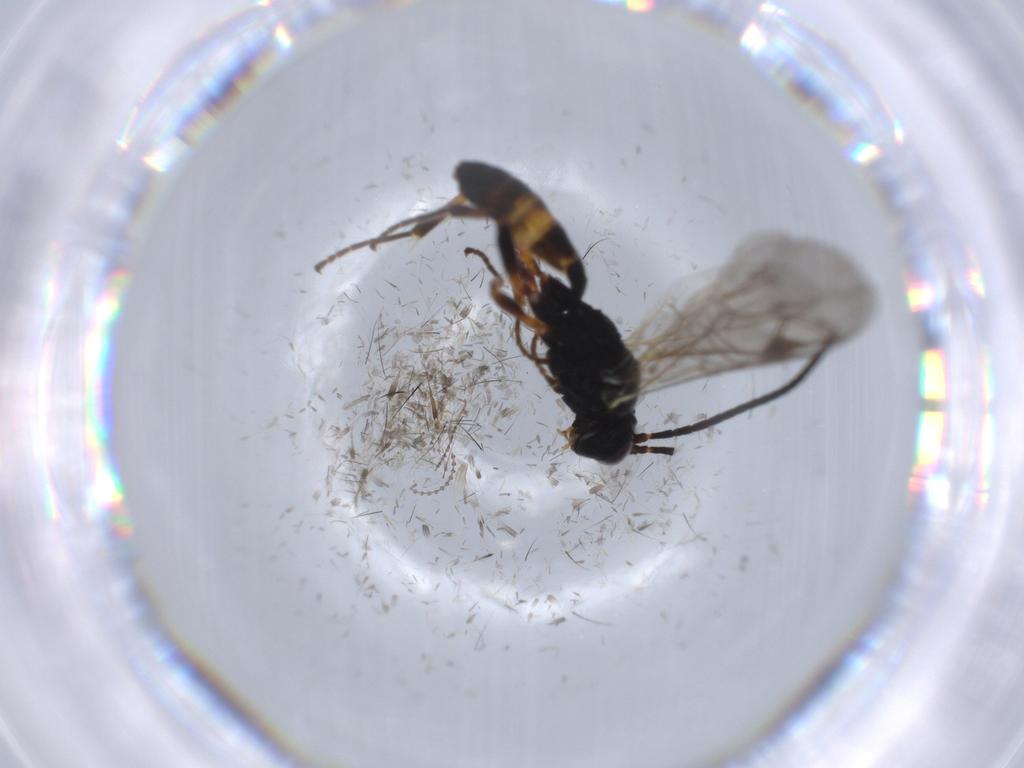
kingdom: Animalia
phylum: Arthropoda
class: Insecta
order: Hymenoptera
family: Ichneumonidae
